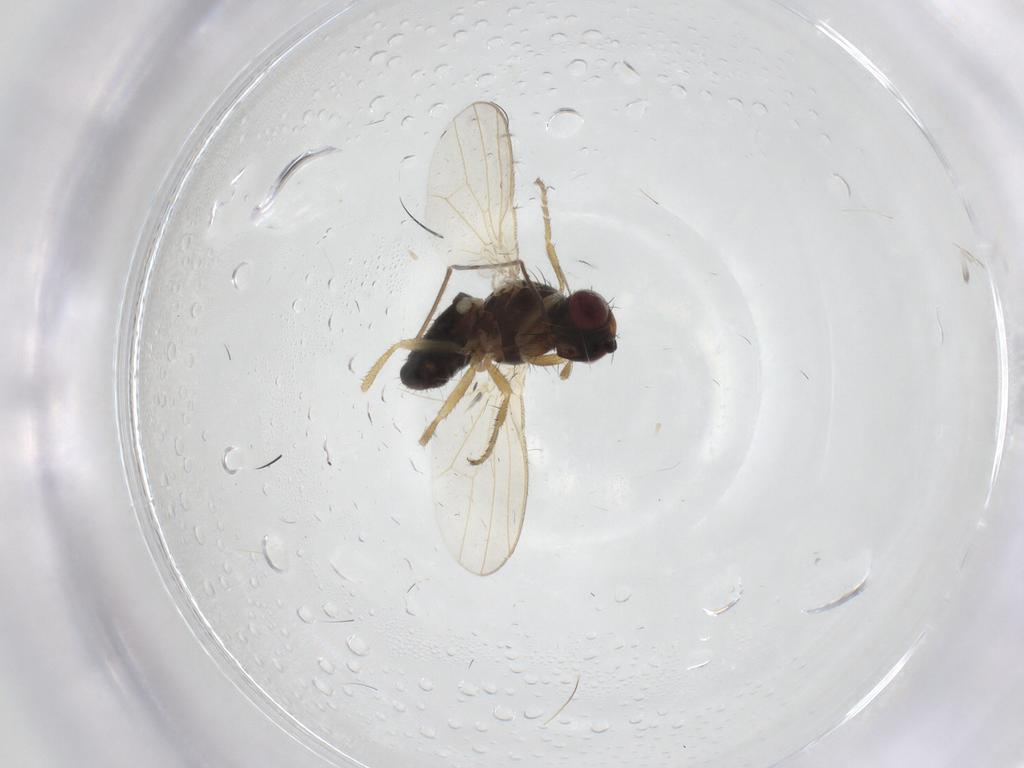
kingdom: Animalia
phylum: Arthropoda
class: Insecta
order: Diptera
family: Heleomyzidae
